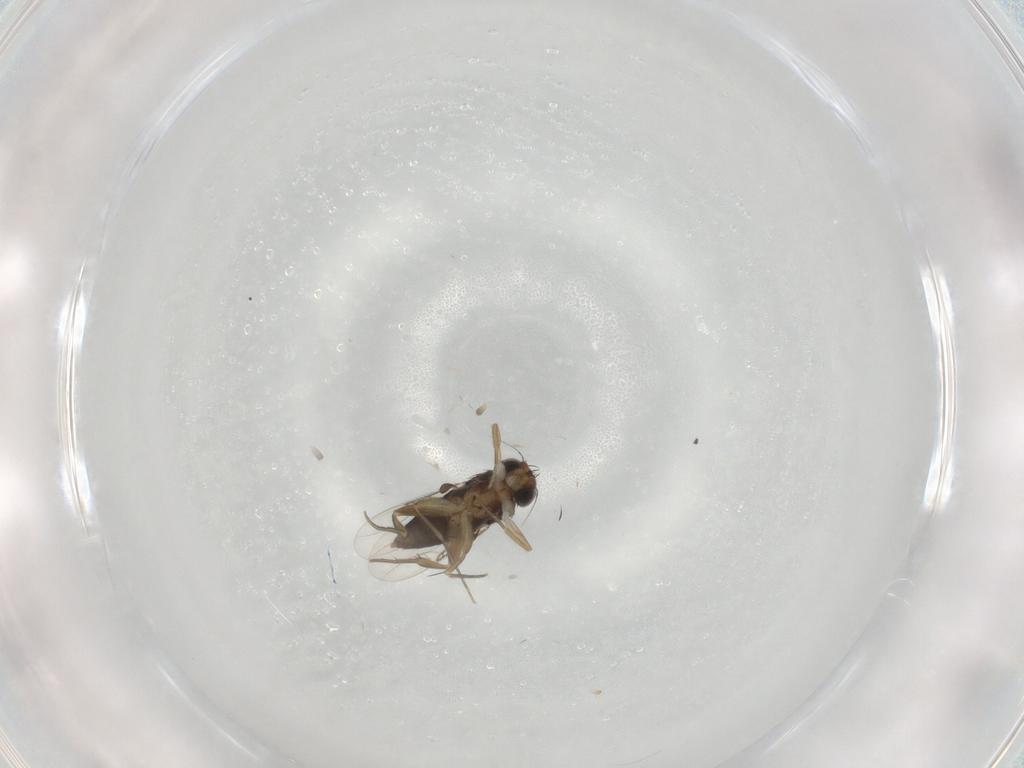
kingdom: Animalia
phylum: Arthropoda
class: Insecta
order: Diptera
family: Phoridae
